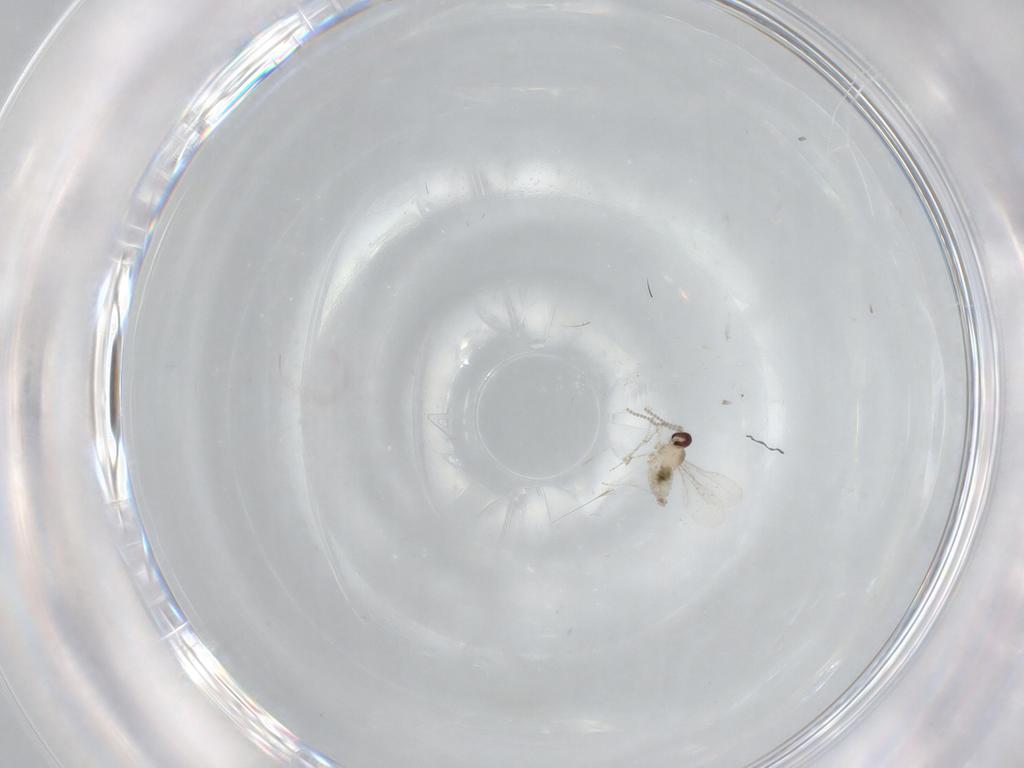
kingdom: Animalia
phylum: Arthropoda
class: Insecta
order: Diptera
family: Cecidomyiidae
